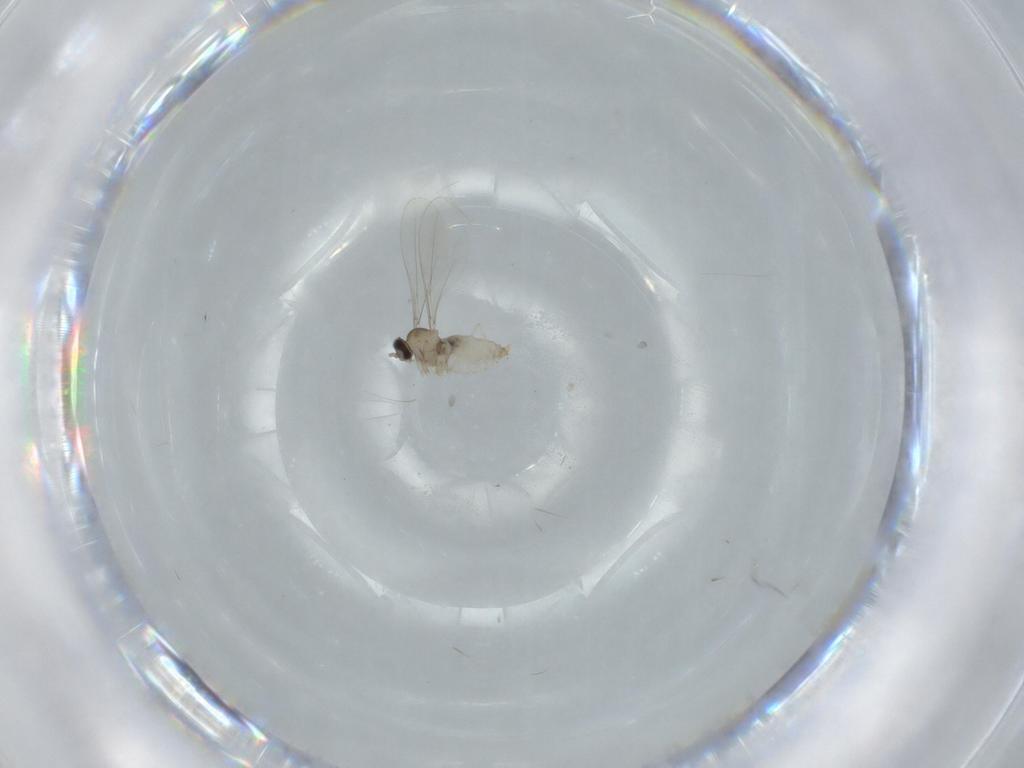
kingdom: Animalia
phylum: Arthropoda
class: Insecta
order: Diptera
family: Cecidomyiidae
